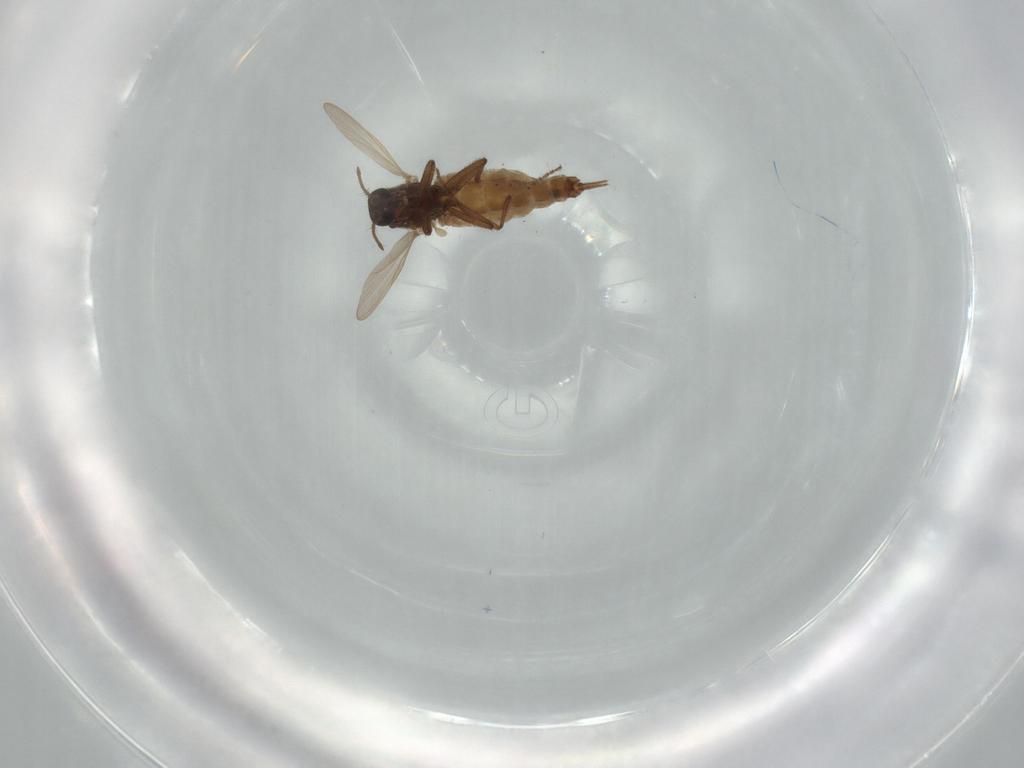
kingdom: Animalia
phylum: Arthropoda
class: Insecta
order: Diptera
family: Ceratopogonidae
